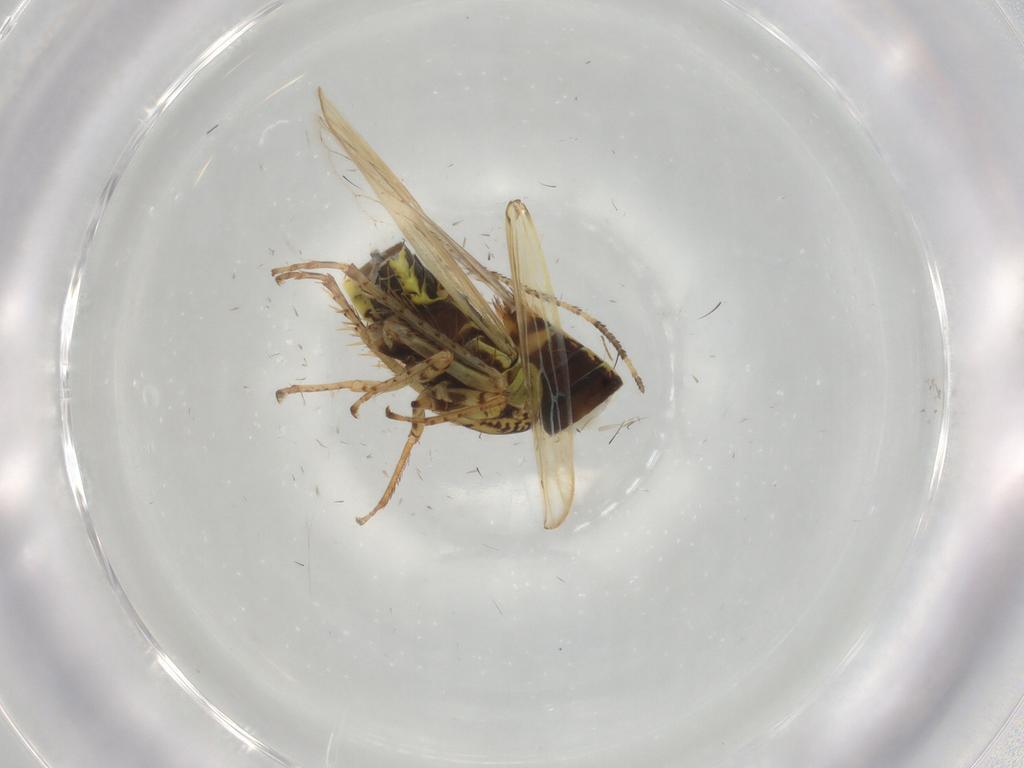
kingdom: Animalia
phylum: Arthropoda
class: Insecta
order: Hemiptera
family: Cicadellidae
